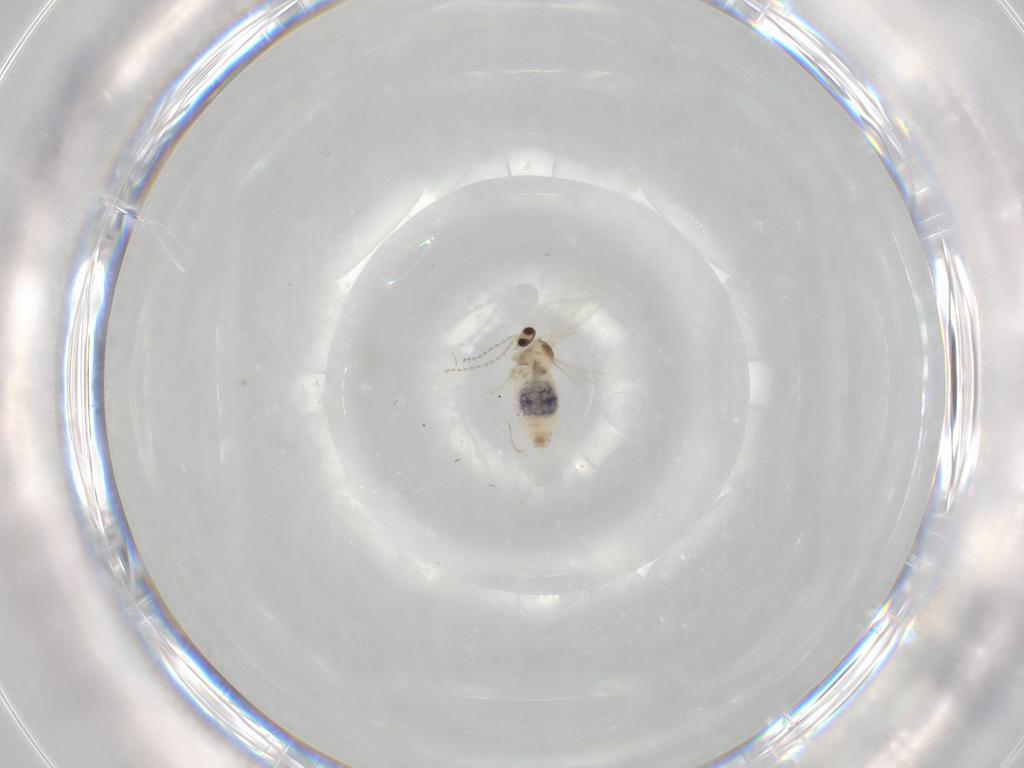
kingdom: Animalia
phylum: Arthropoda
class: Insecta
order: Diptera
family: Cecidomyiidae
